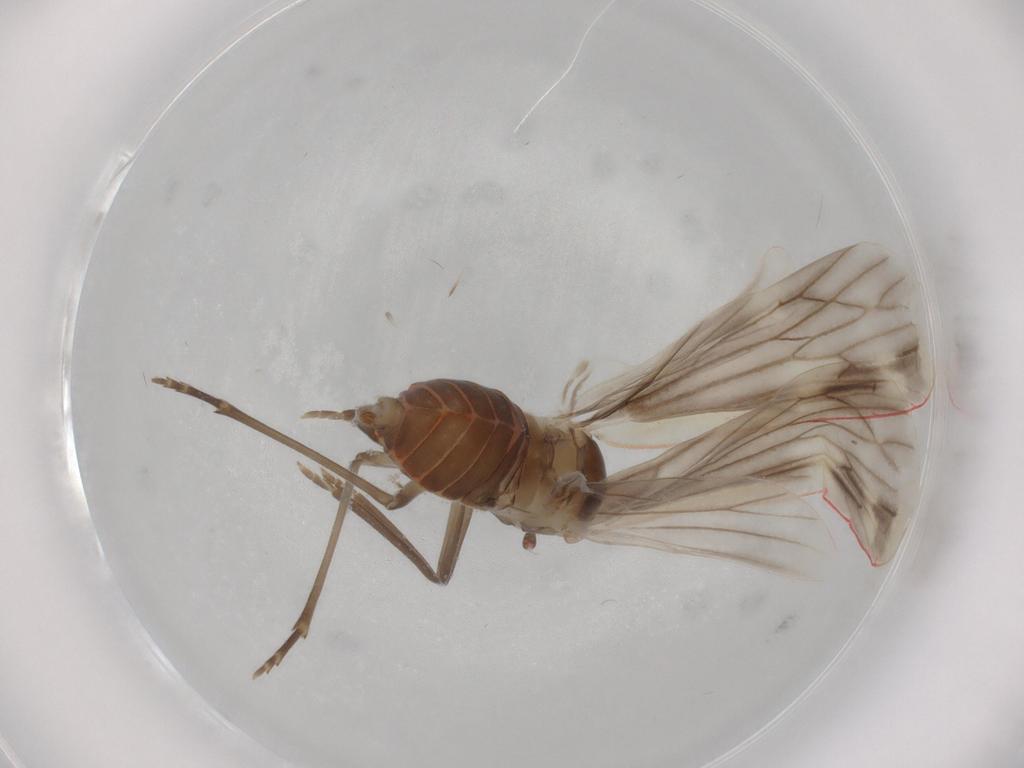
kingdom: Animalia
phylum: Arthropoda
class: Insecta
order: Hemiptera
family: Derbidae
